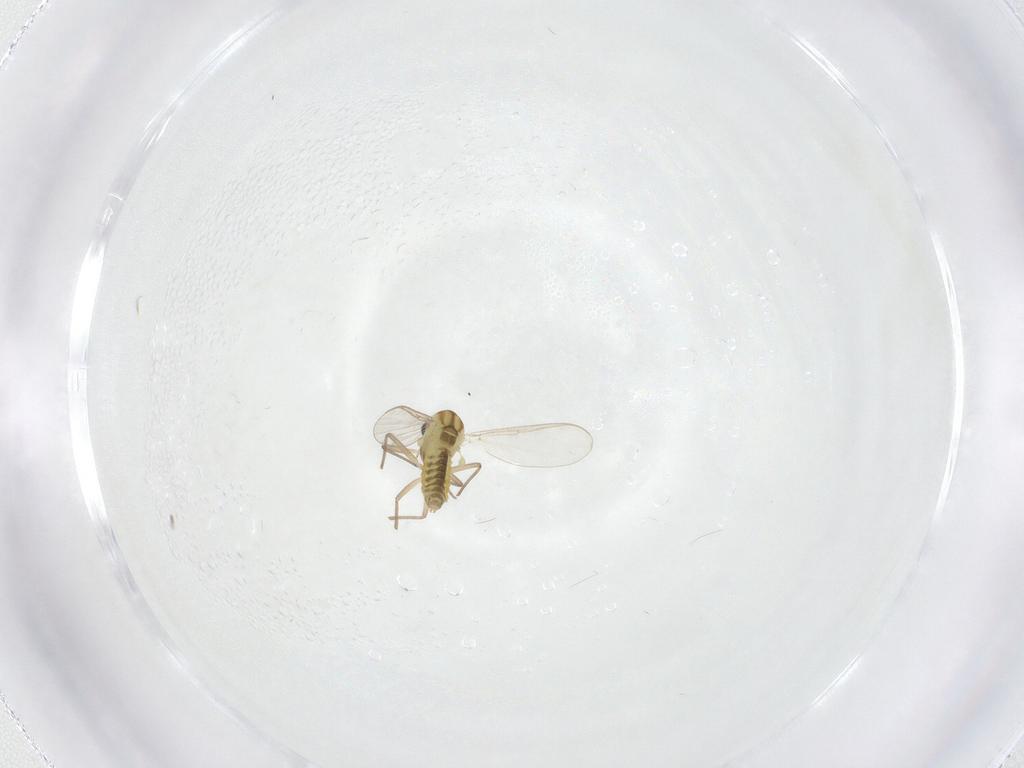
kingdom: Animalia
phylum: Arthropoda
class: Insecta
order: Diptera
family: Chironomidae
